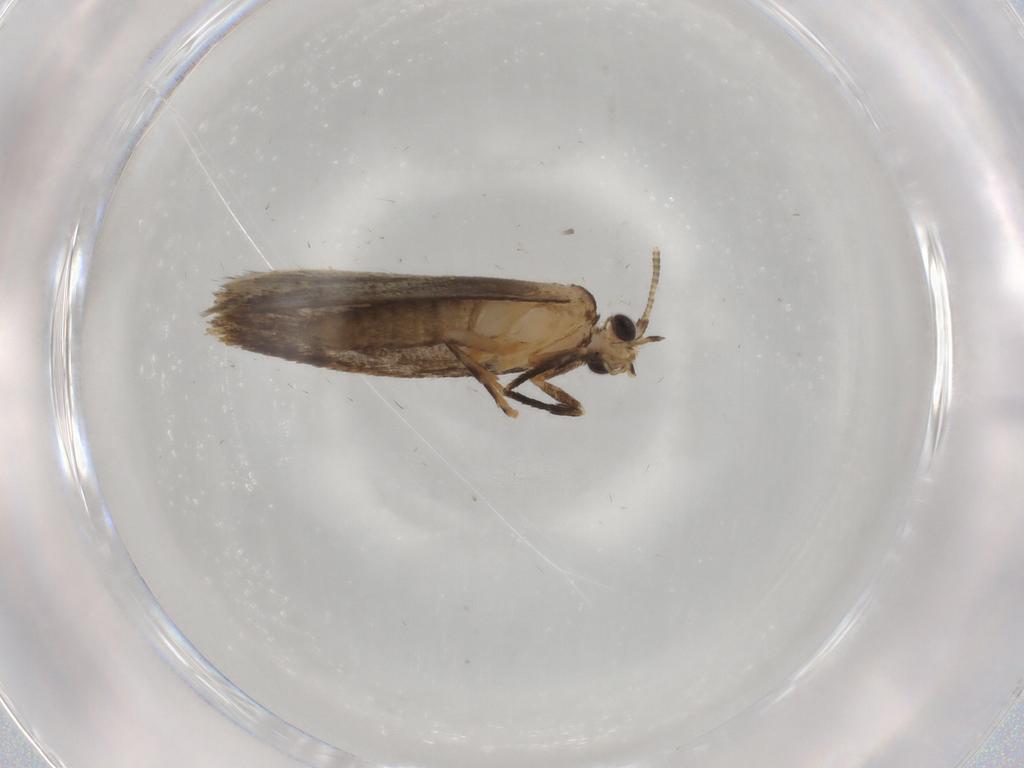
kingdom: Animalia
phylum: Arthropoda
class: Insecta
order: Lepidoptera
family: Tineidae
